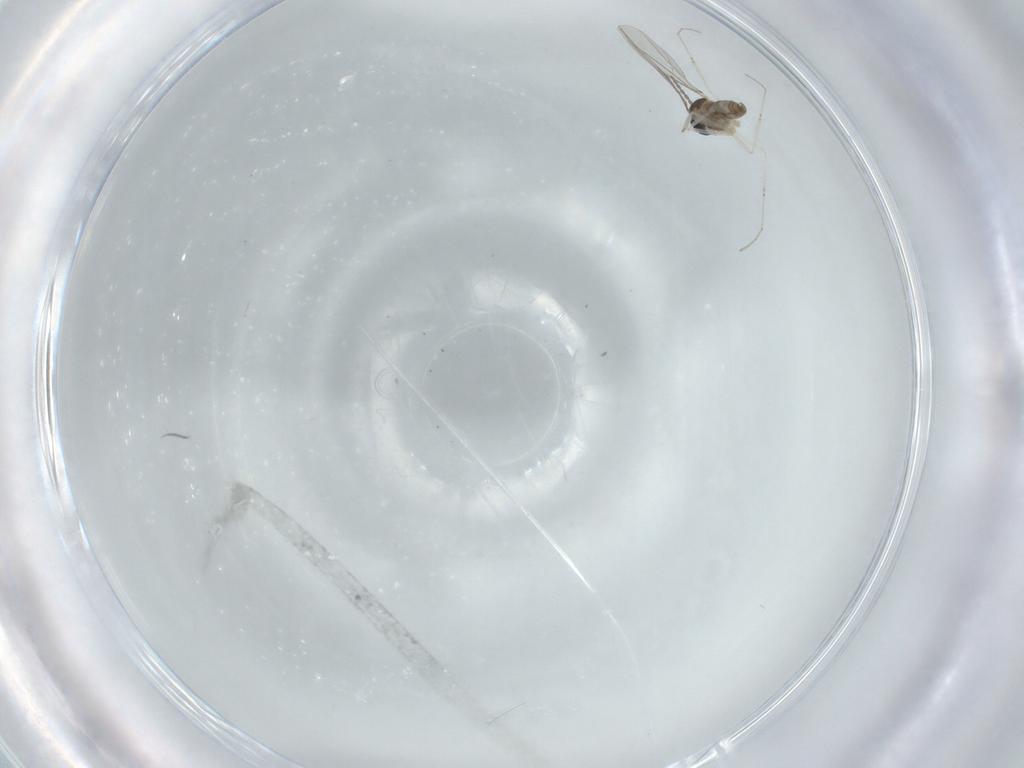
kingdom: Animalia
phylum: Arthropoda
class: Insecta
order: Diptera
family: Cecidomyiidae
